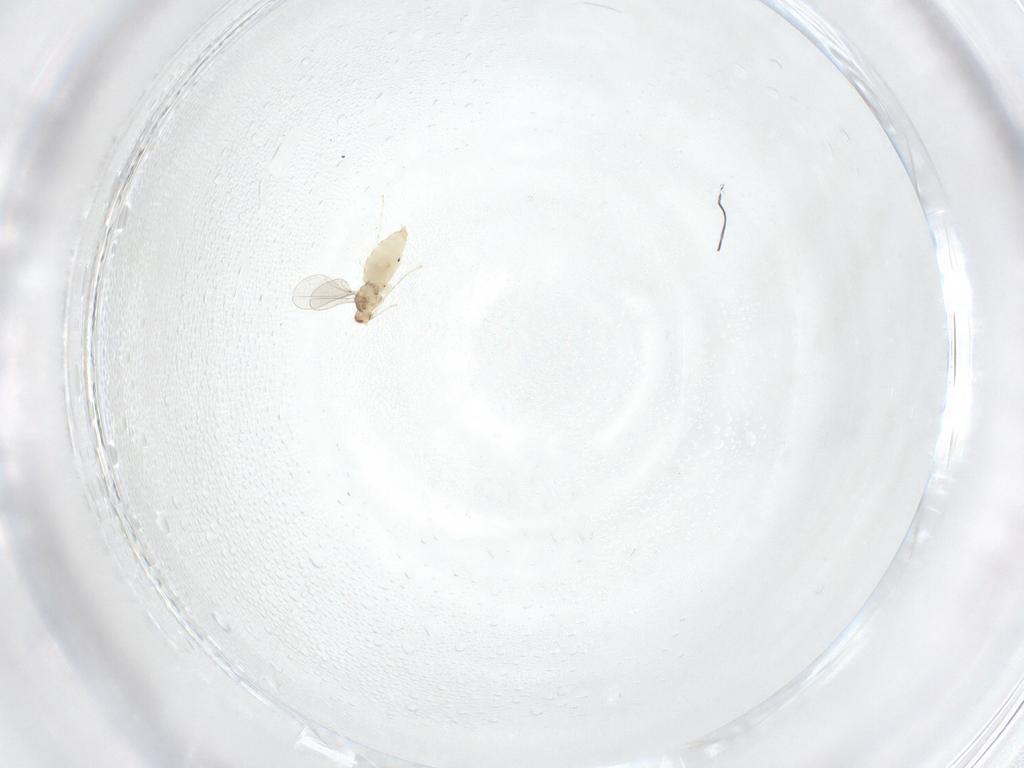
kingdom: Animalia
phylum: Arthropoda
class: Insecta
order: Diptera
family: Cecidomyiidae
